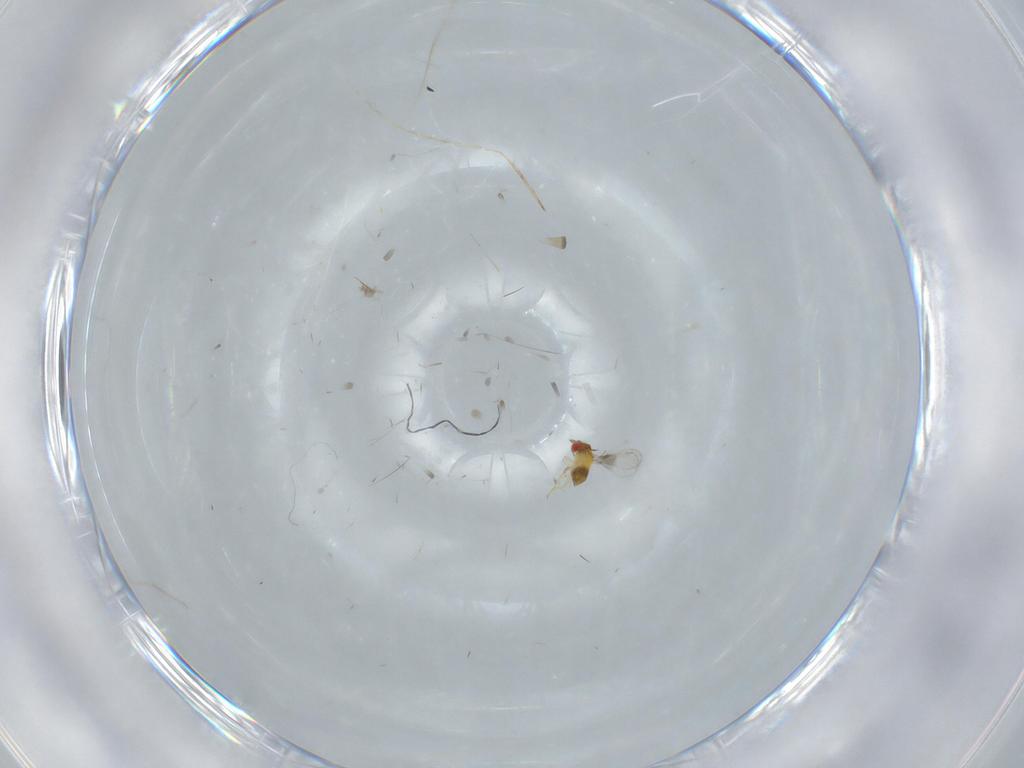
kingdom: Animalia
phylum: Arthropoda
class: Insecta
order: Hymenoptera
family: Trichogrammatidae
